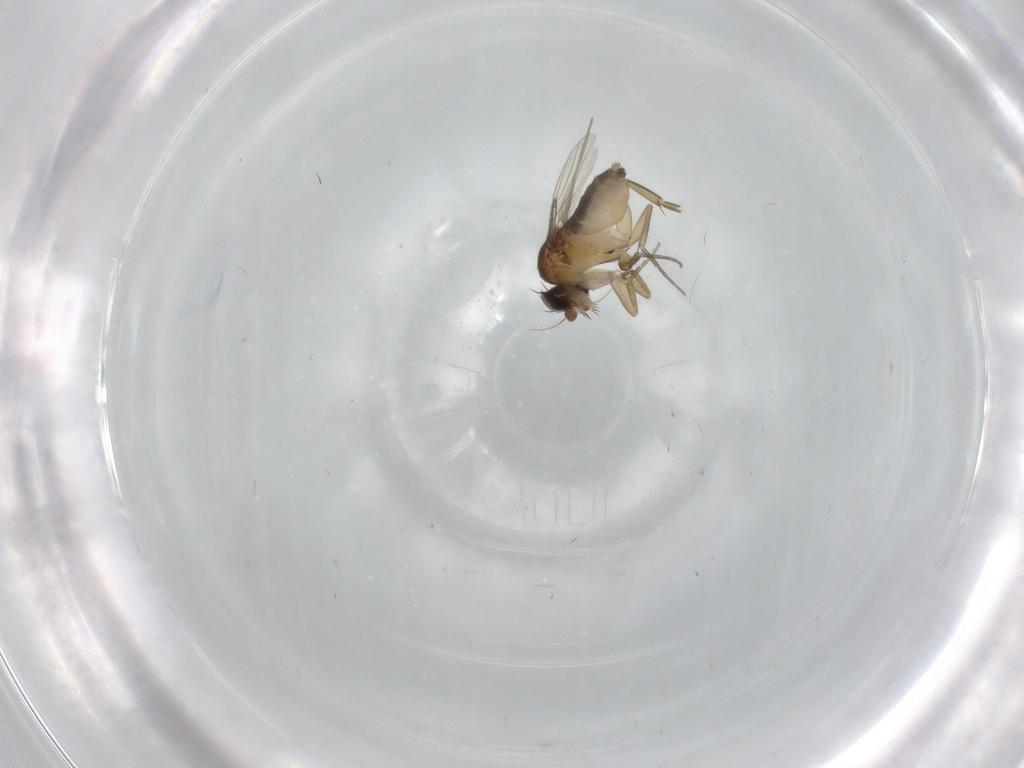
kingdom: Animalia
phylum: Arthropoda
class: Insecta
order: Diptera
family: Phoridae
